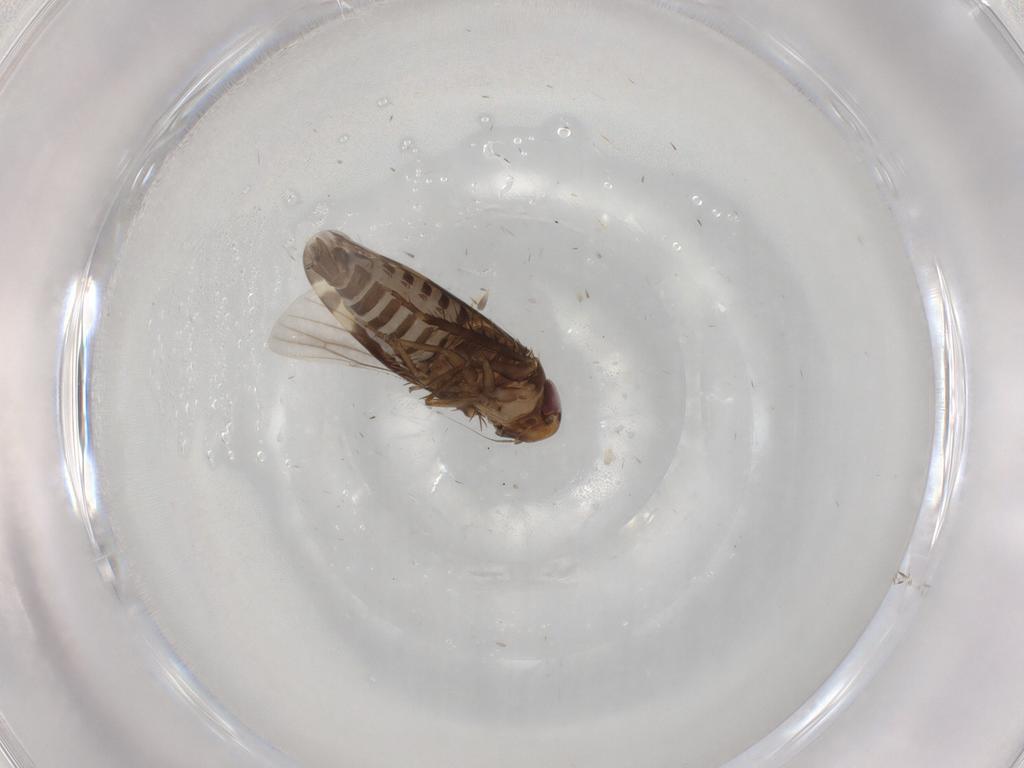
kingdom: Animalia
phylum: Arthropoda
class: Insecta
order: Hemiptera
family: Cicadellidae
